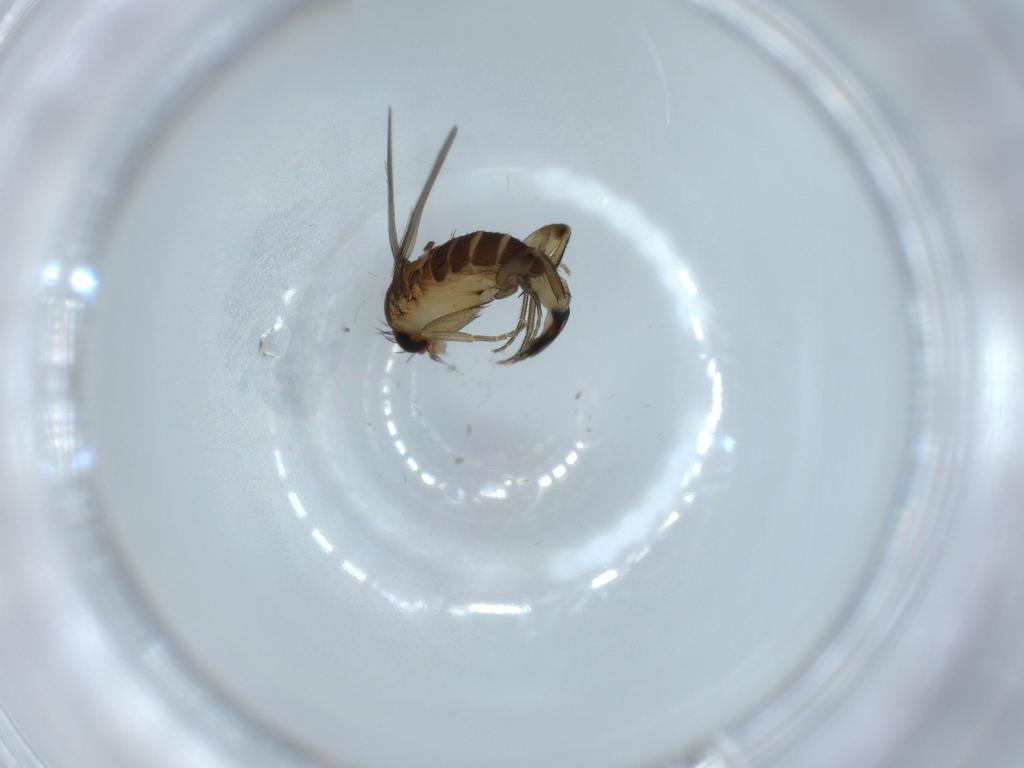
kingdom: Animalia
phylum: Arthropoda
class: Insecta
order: Diptera
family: Phoridae
